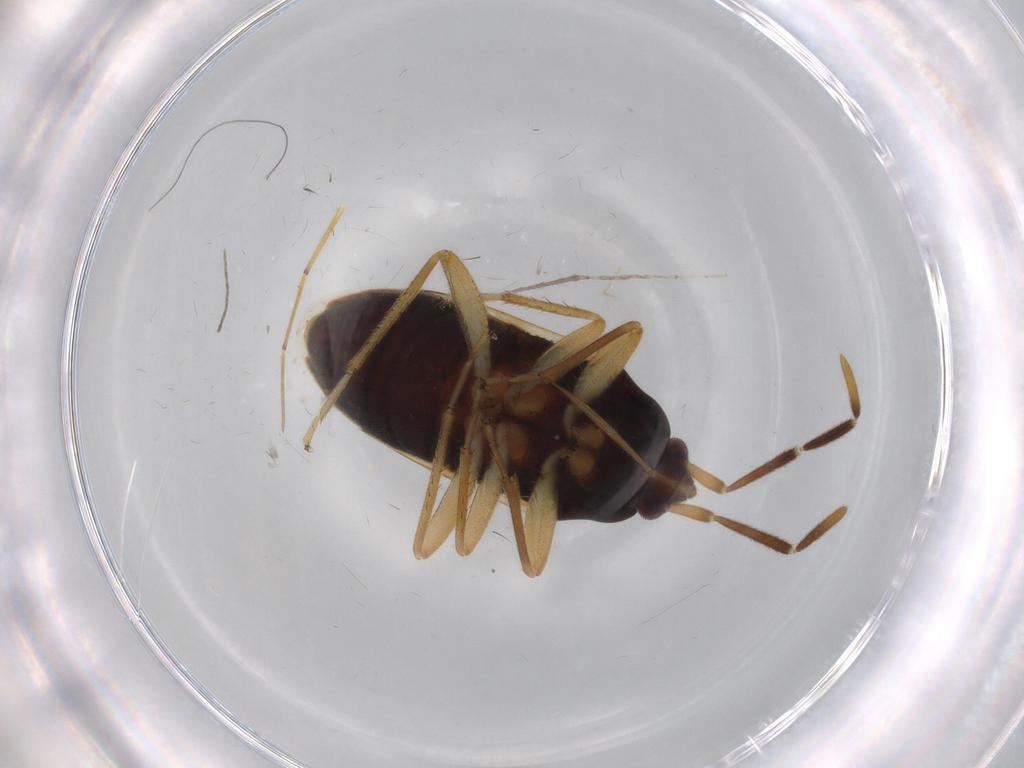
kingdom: Animalia
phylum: Arthropoda
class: Insecta
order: Hemiptera
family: Rhyparochromidae
